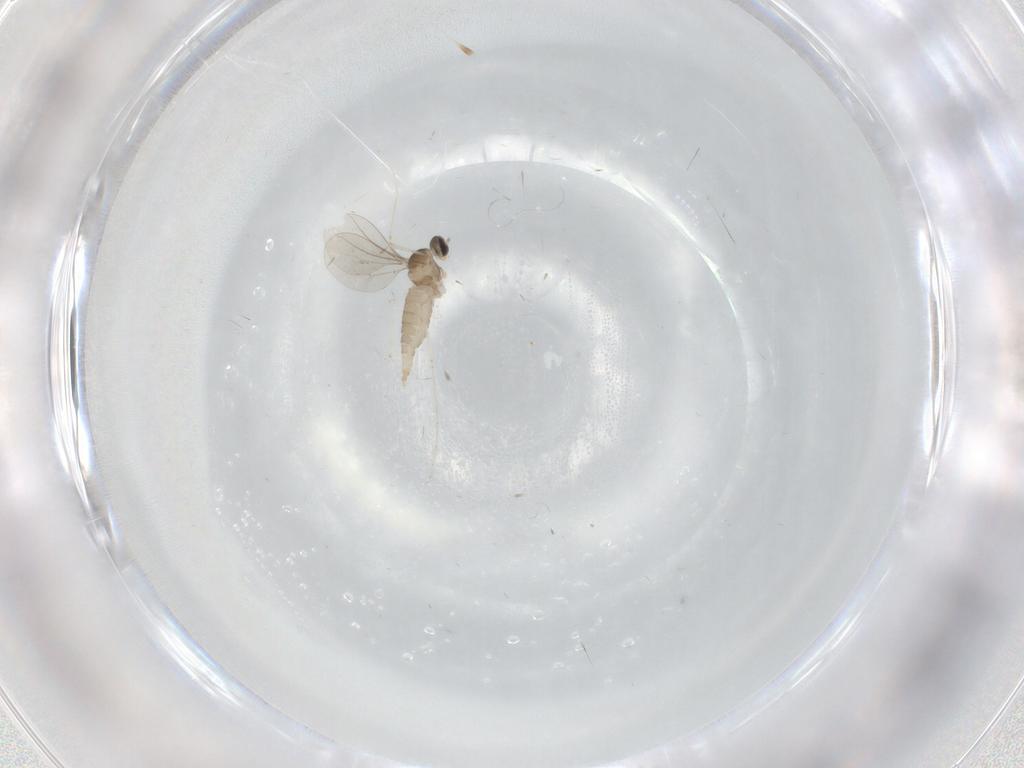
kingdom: Animalia
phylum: Arthropoda
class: Insecta
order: Diptera
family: Cecidomyiidae
